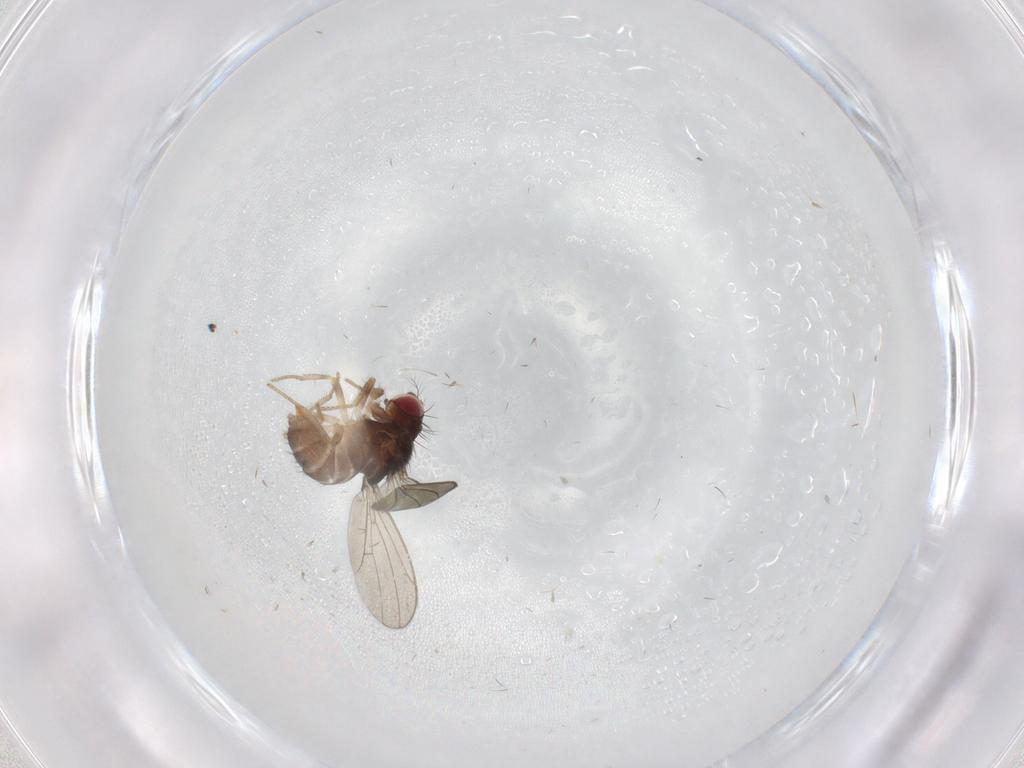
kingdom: Animalia
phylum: Arthropoda
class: Insecta
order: Diptera
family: Drosophilidae
